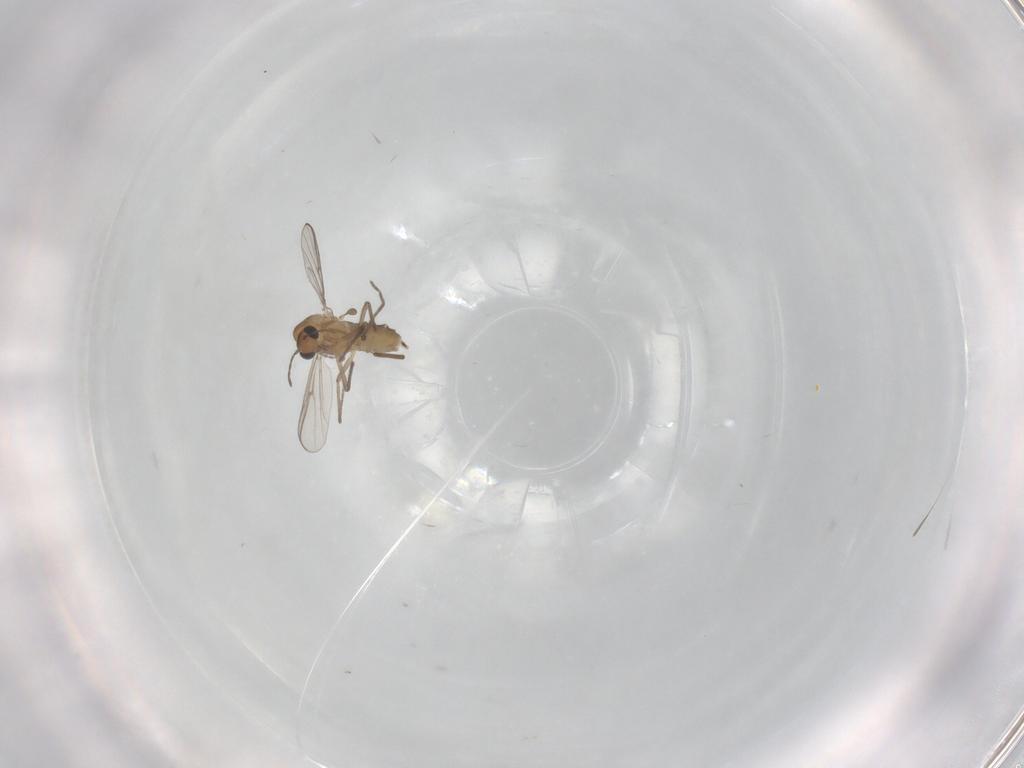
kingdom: Animalia
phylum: Arthropoda
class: Insecta
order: Diptera
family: Chironomidae
